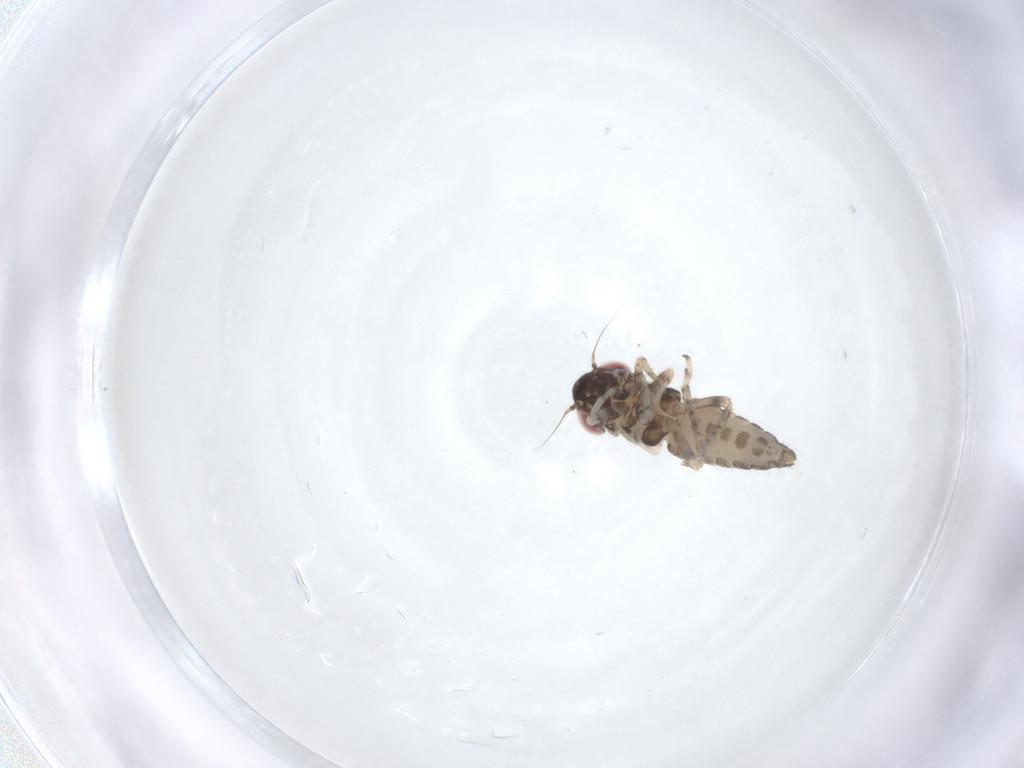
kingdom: Animalia
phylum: Arthropoda
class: Insecta
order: Hemiptera
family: Cicadellidae
